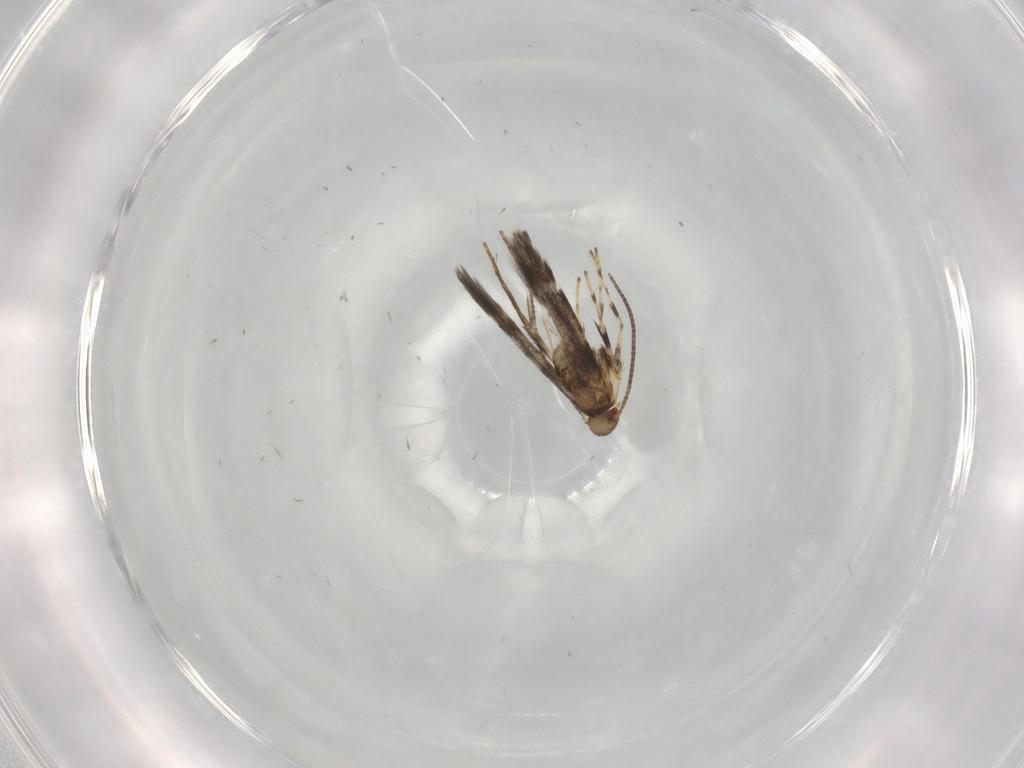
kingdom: Animalia
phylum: Arthropoda
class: Insecta
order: Lepidoptera
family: Gracillariidae
